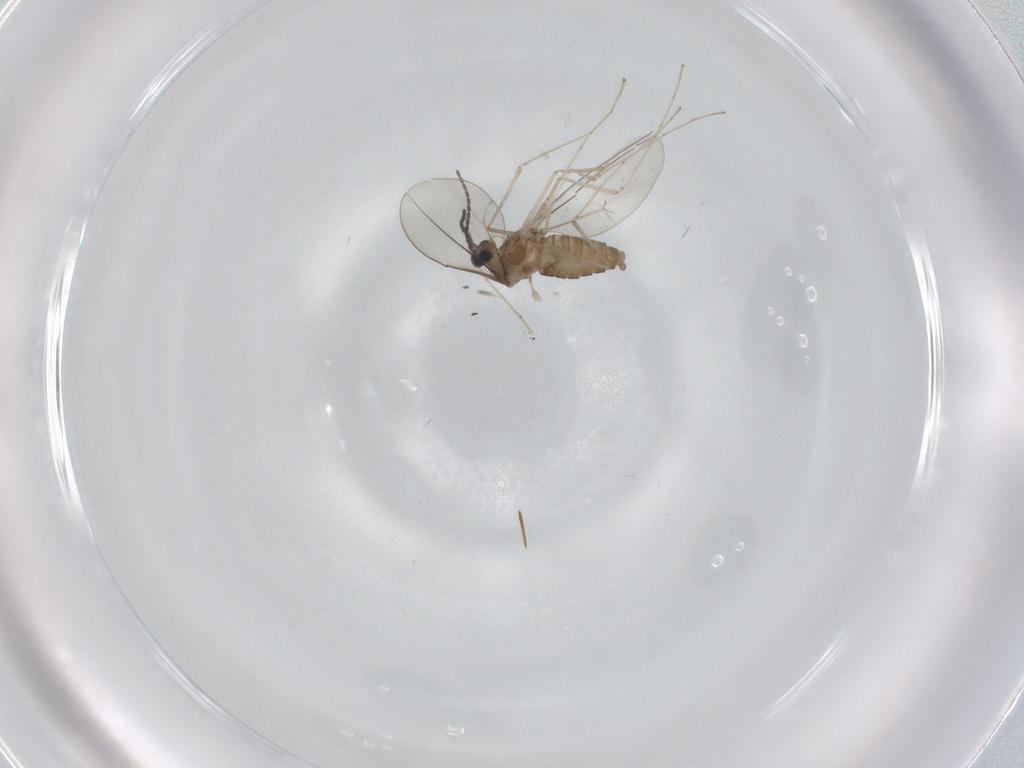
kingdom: Animalia
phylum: Arthropoda
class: Insecta
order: Diptera
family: Cecidomyiidae
